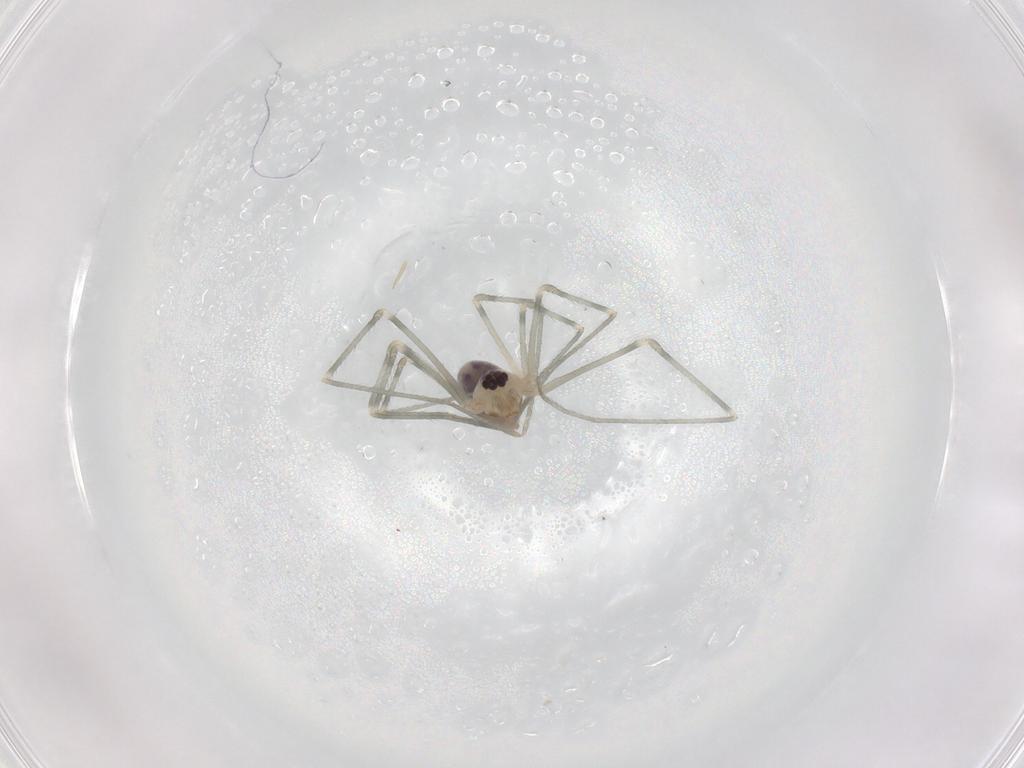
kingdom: Animalia
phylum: Arthropoda
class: Arachnida
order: Araneae
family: Pholcidae
